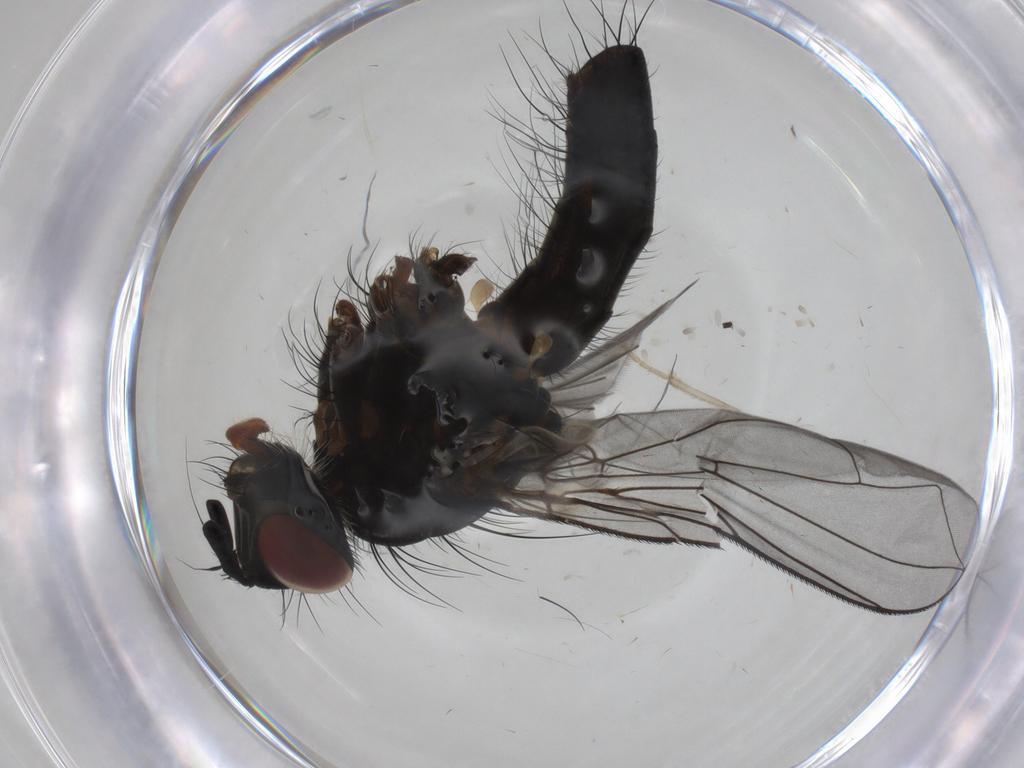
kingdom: Animalia
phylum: Arthropoda
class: Insecta
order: Diptera
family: Tachinidae
